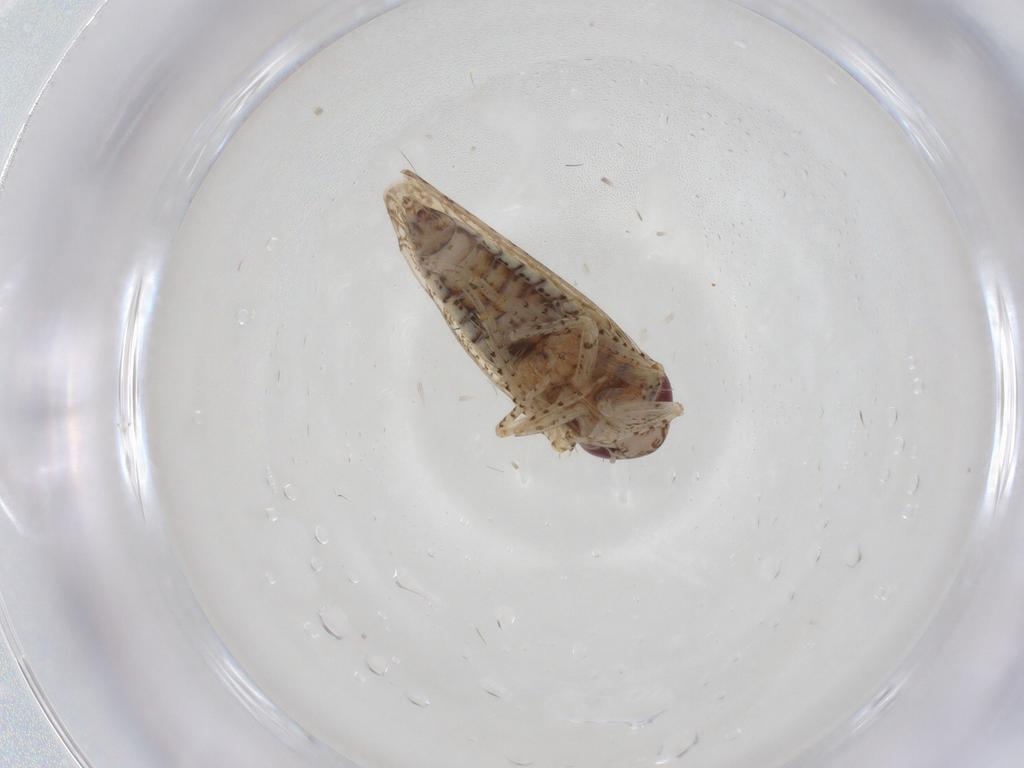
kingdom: Animalia
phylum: Arthropoda
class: Insecta
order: Hemiptera
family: Cicadellidae
